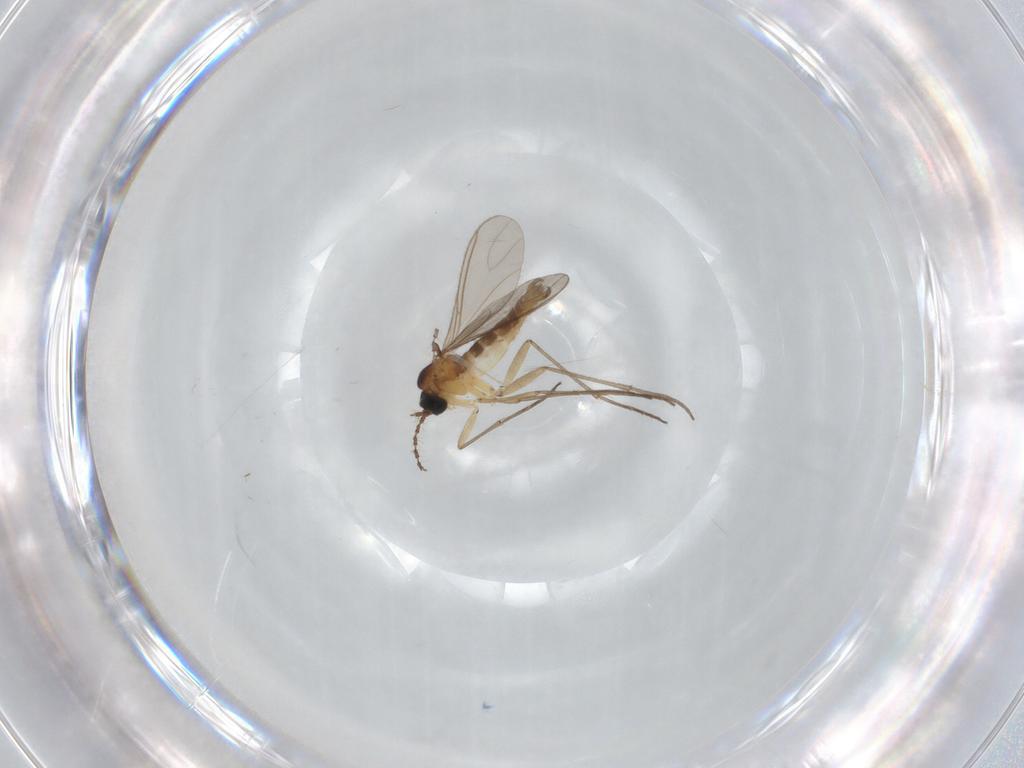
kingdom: Animalia
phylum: Arthropoda
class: Insecta
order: Diptera
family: Sciaridae
